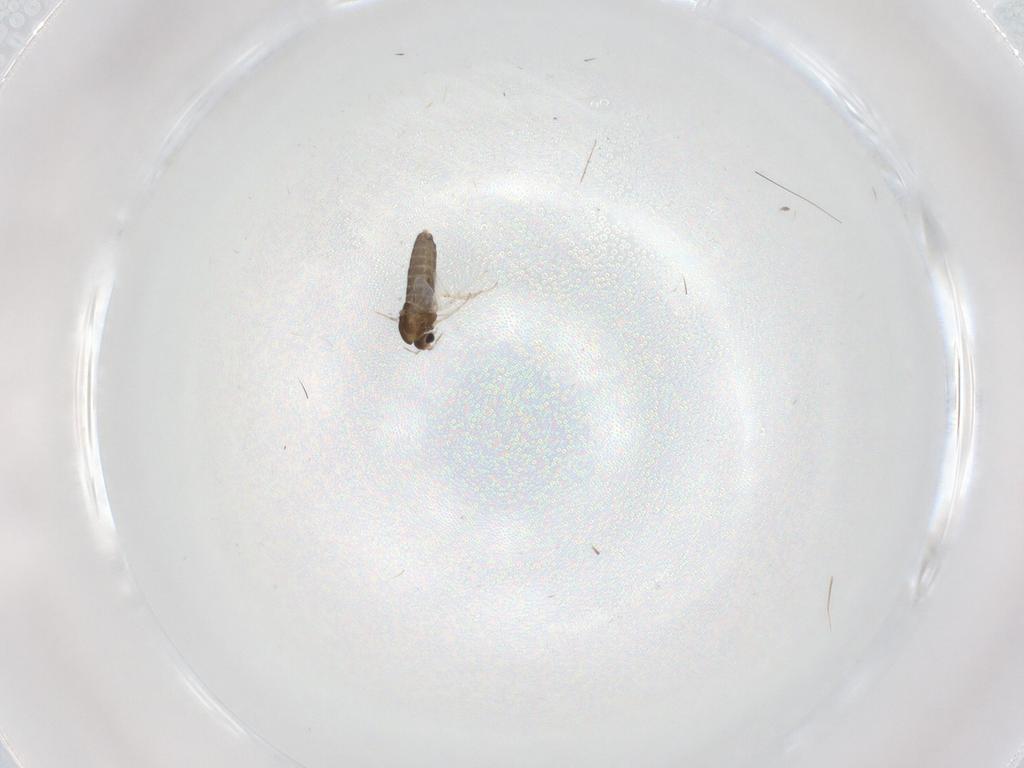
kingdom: Animalia
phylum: Arthropoda
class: Insecta
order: Diptera
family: Chironomidae
